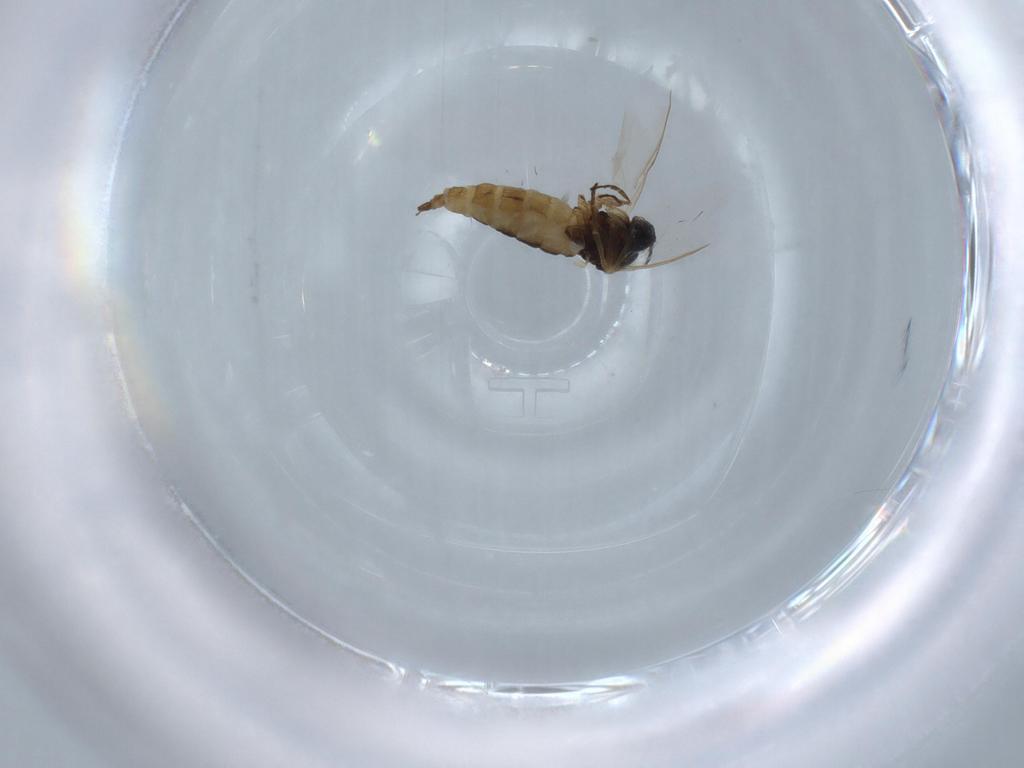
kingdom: Animalia
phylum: Arthropoda
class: Insecta
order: Diptera
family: Sciaridae
